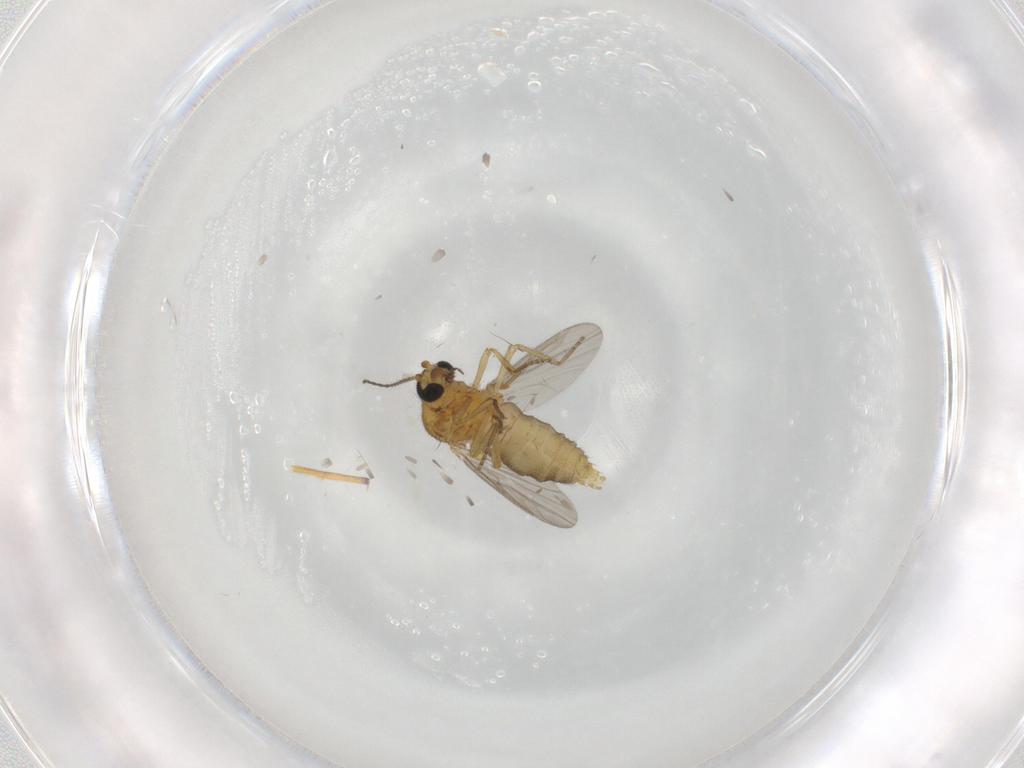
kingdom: Animalia
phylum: Arthropoda
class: Insecta
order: Diptera
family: Ceratopogonidae
